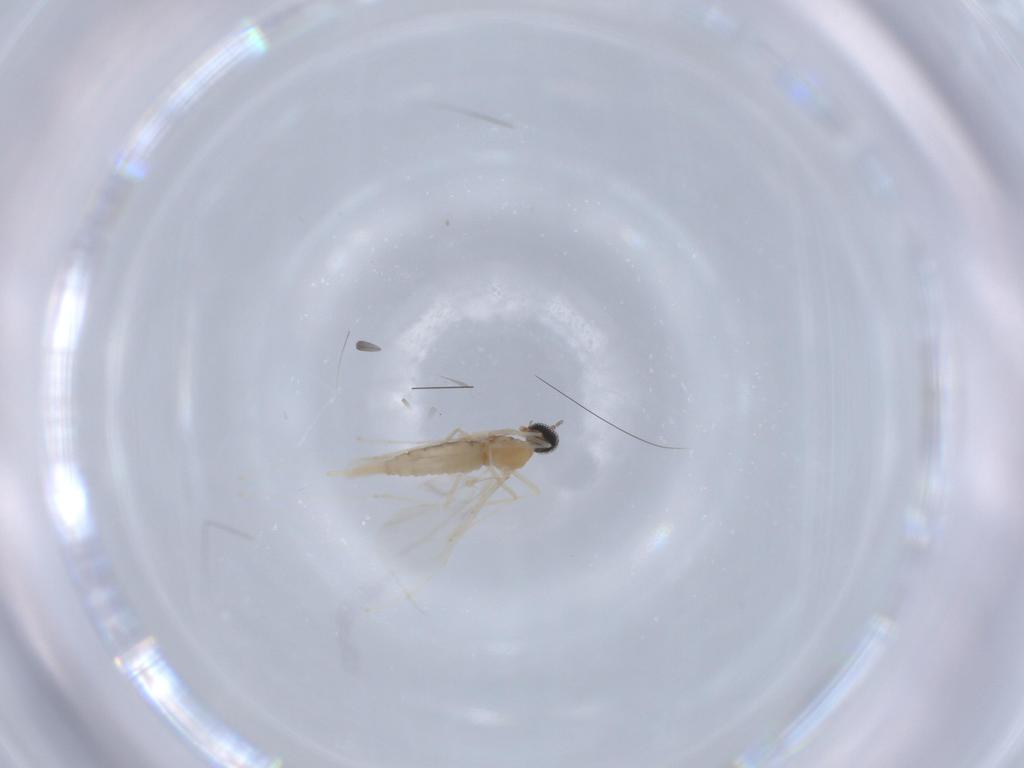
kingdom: Animalia
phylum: Arthropoda
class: Insecta
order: Diptera
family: Cecidomyiidae
